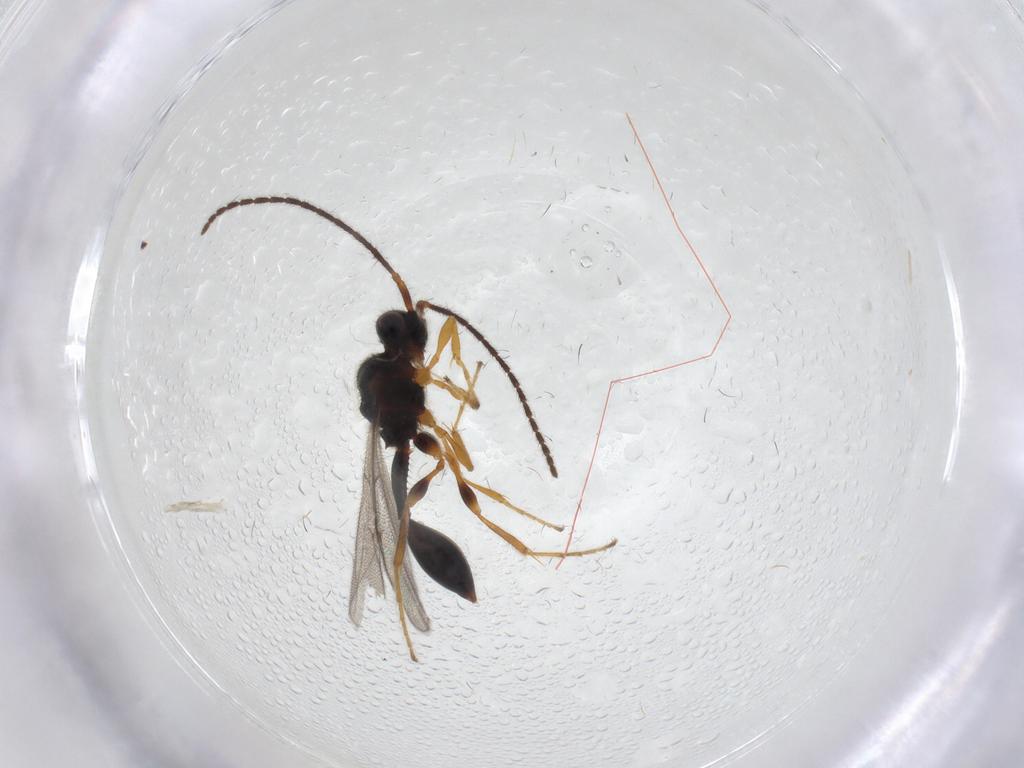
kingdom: Animalia
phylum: Arthropoda
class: Insecta
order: Hymenoptera
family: Diapriidae
